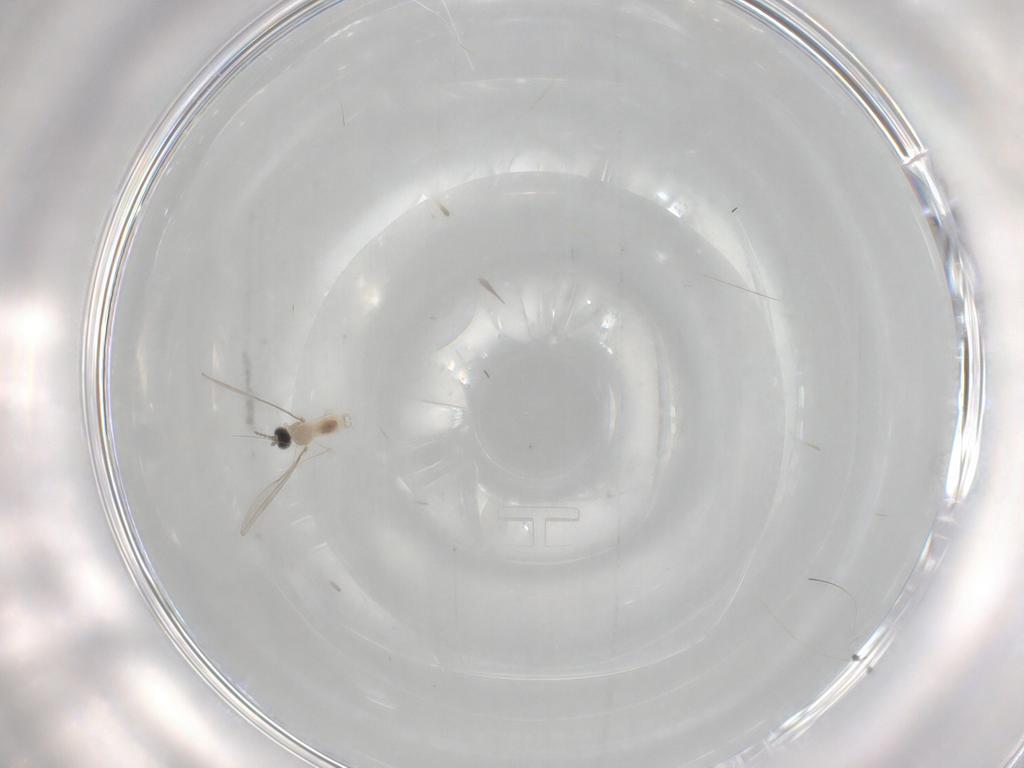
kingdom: Animalia
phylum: Arthropoda
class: Insecta
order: Diptera
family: Cecidomyiidae
